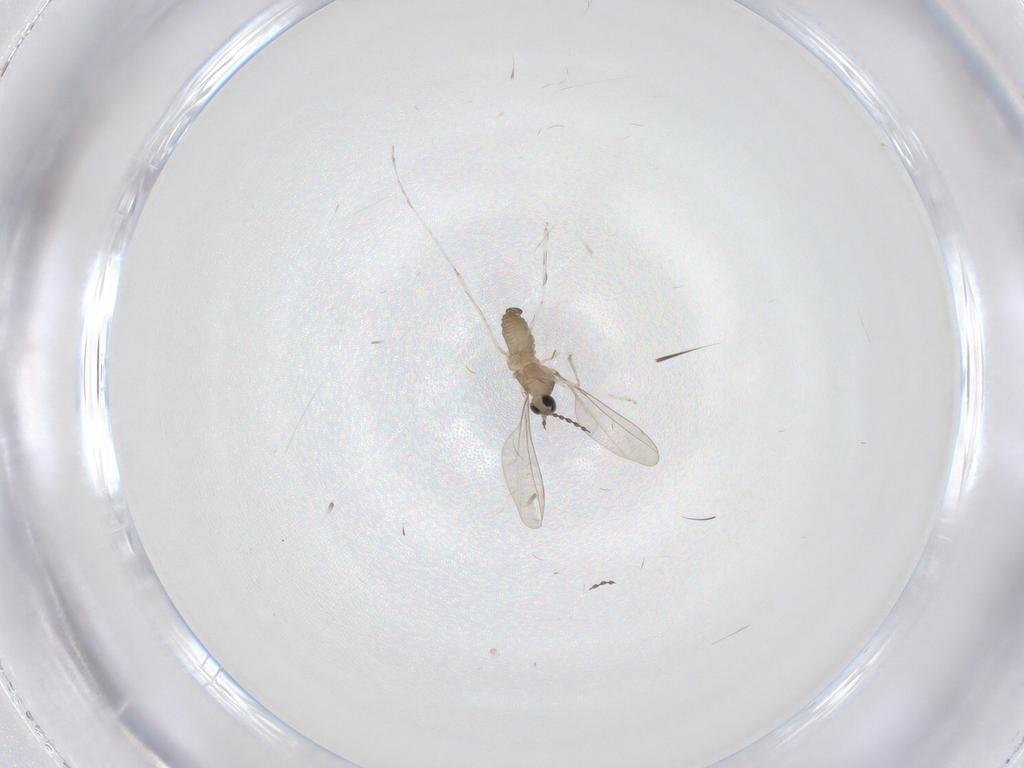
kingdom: Animalia
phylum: Arthropoda
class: Insecta
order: Diptera
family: Cecidomyiidae
